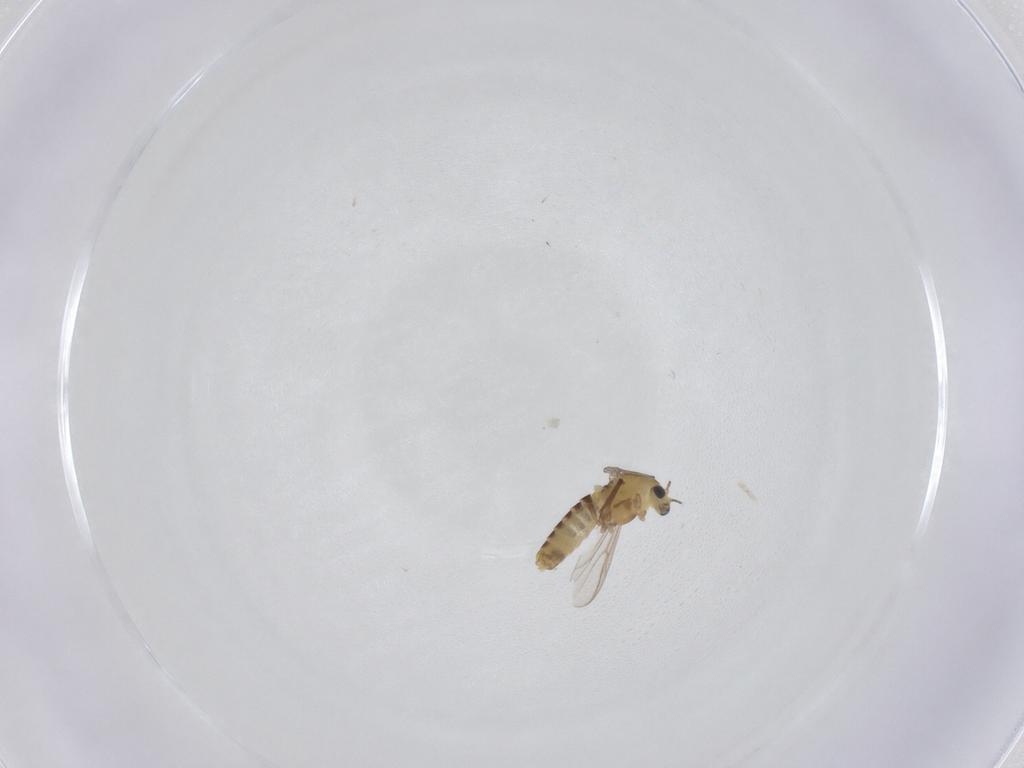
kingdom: Animalia
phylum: Arthropoda
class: Insecta
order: Diptera
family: Chironomidae
